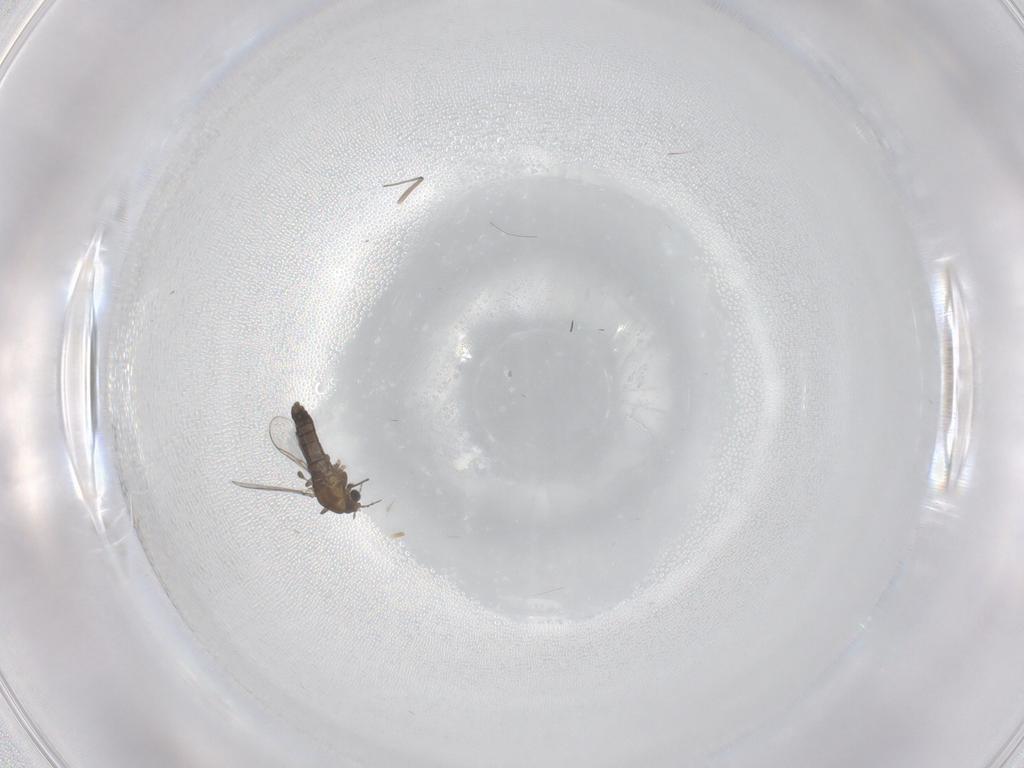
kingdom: Animalia
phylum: Arthropoda
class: Insecta
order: Diptera
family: Chironomidae
